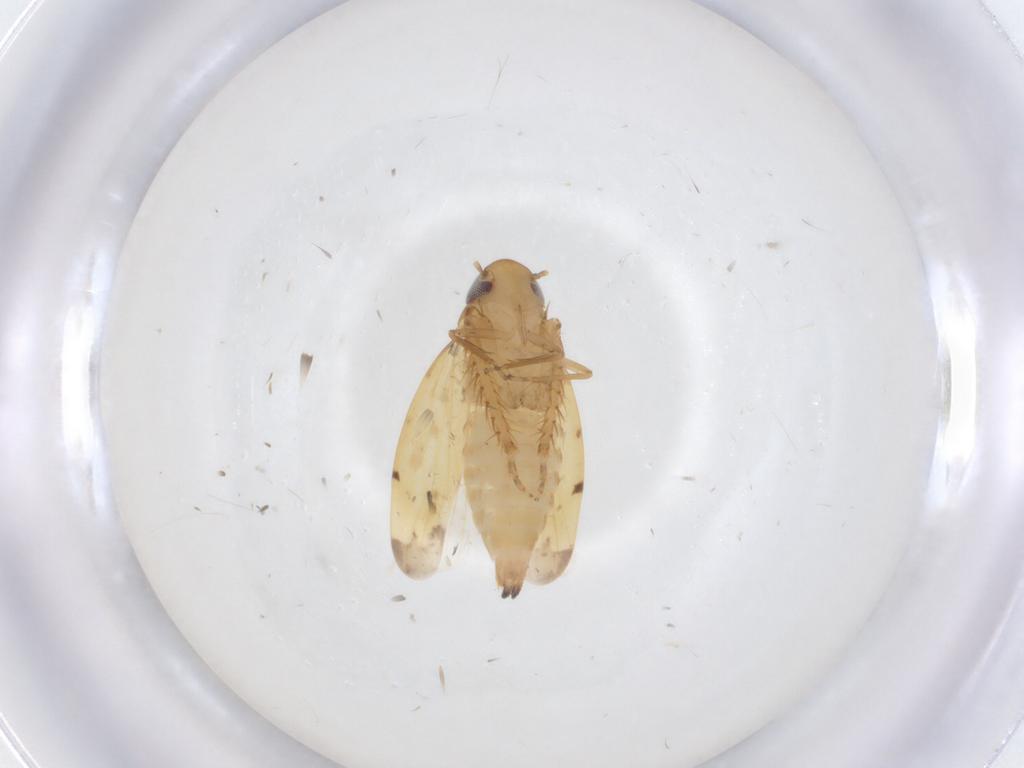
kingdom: Animalia
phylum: Arthropoda
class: Insecta
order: Hemiptera
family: Cicadellidae
